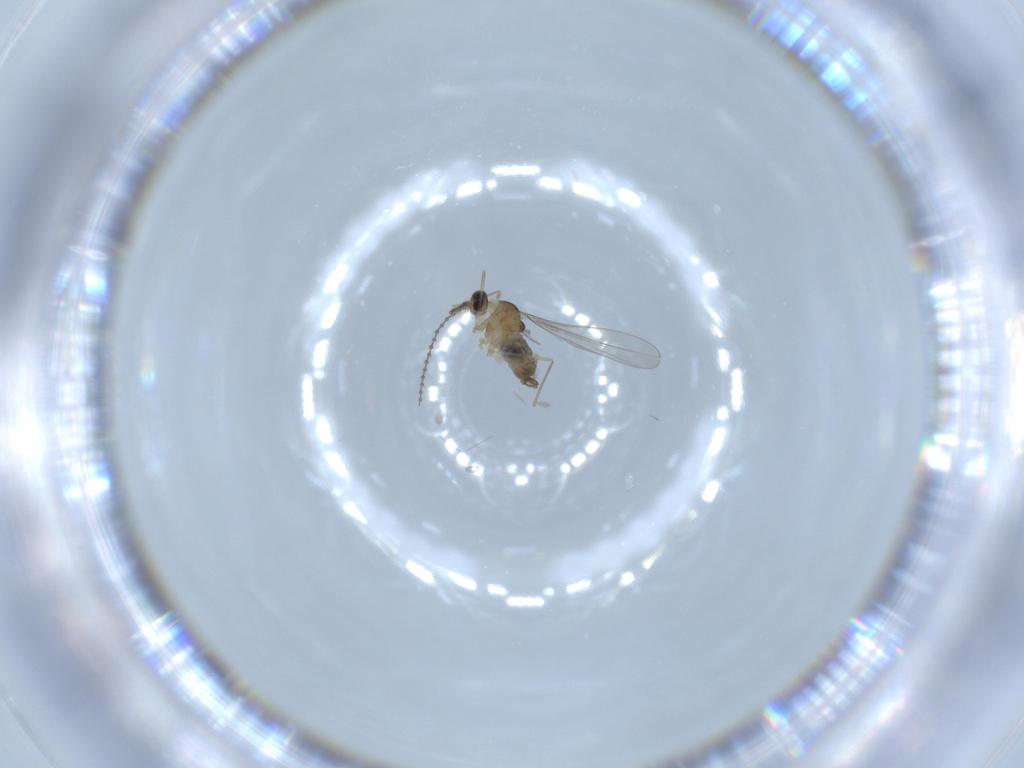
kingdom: Animalia
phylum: Arthropoda
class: Insecta
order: Diptera
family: Cecidomyiidae
